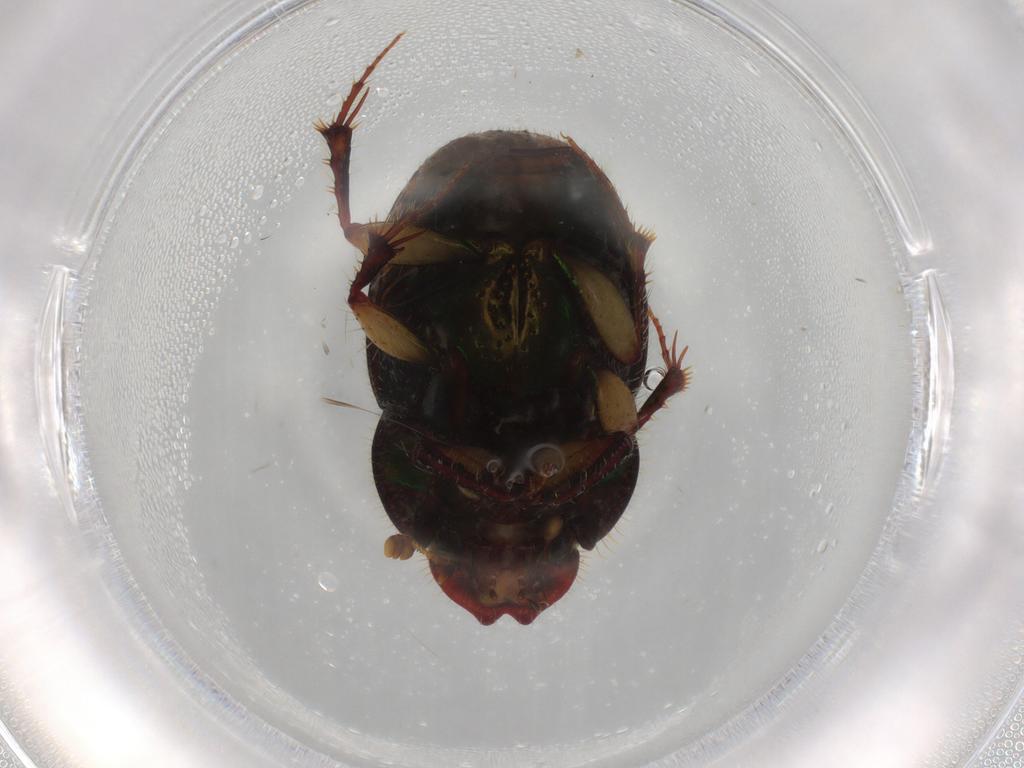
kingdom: Animalia
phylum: Arthropoda
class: Insecta
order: Coleoptera
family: Scarabaeidae
